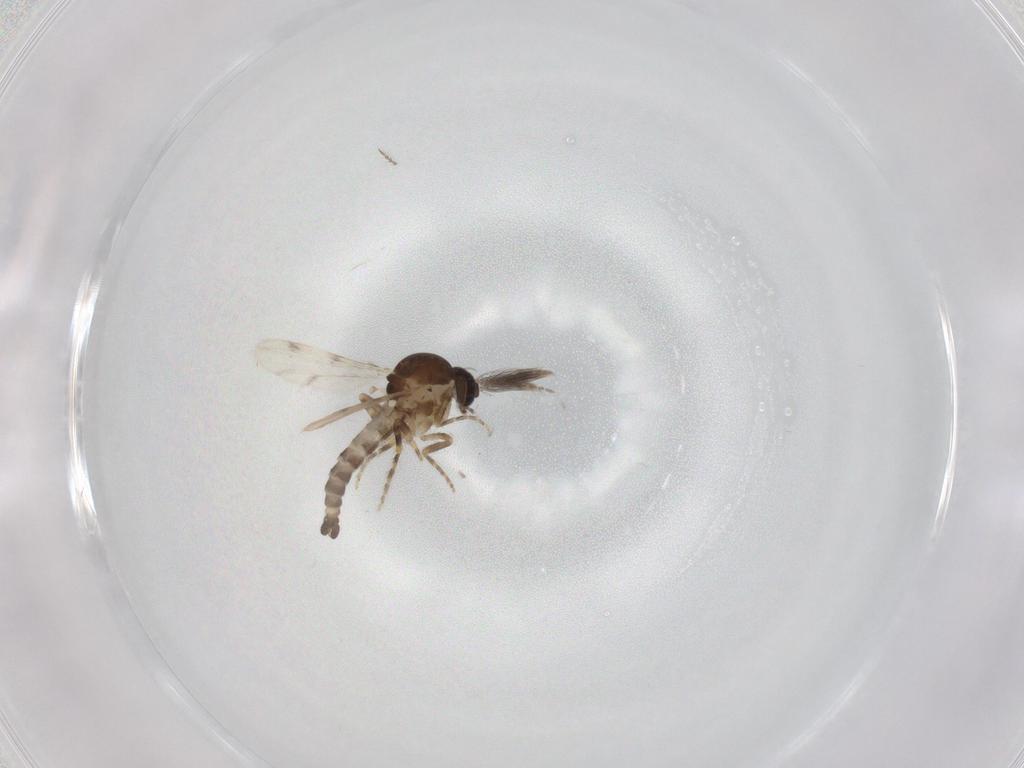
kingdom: Animalia
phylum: Arthropoda
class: Insecta
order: Diptera
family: Ceratopogonidae
